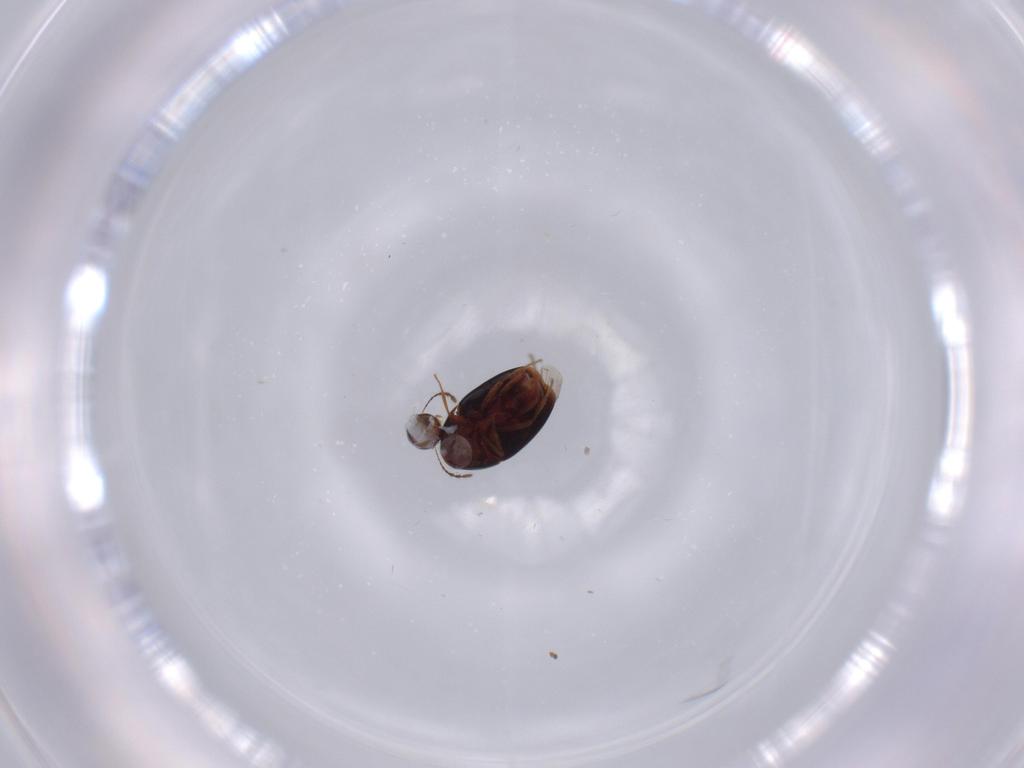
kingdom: Animalia
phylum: Arthropoda
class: Insecta
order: Coleoptera
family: Staphylinidae
